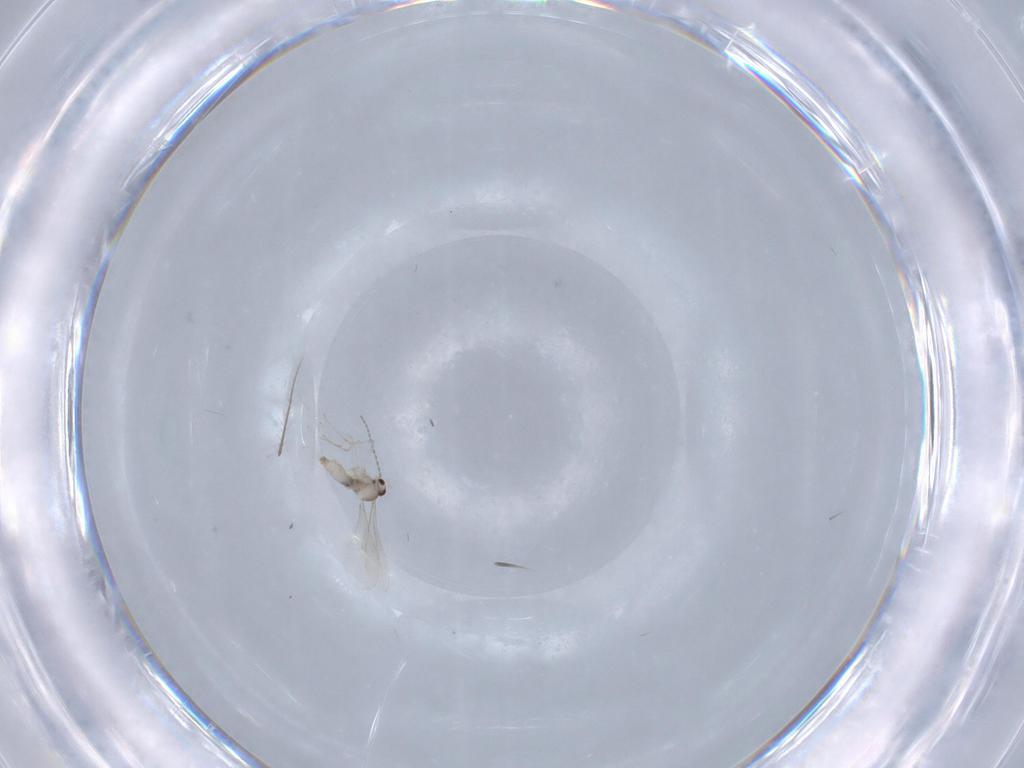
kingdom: Animalia
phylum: Arthropoda
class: Insecta
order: Diptera
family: Cecidomyiidae
